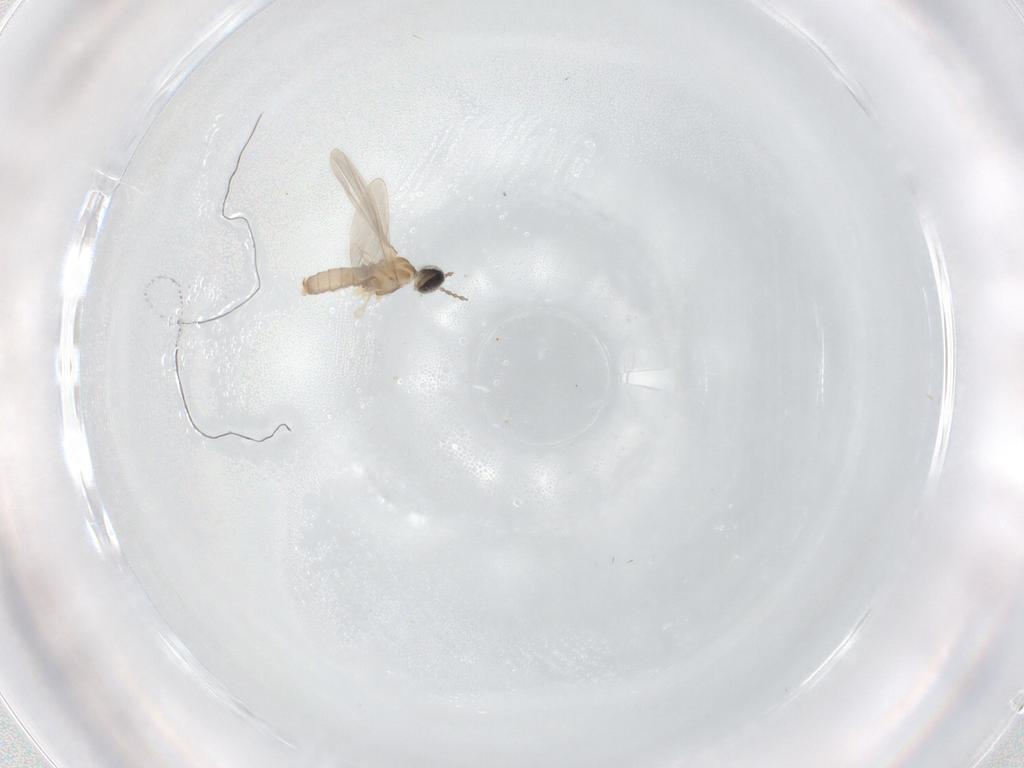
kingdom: Animalia
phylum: Arthropoda
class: Insecta
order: Diptera
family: Cecidomyiidae
